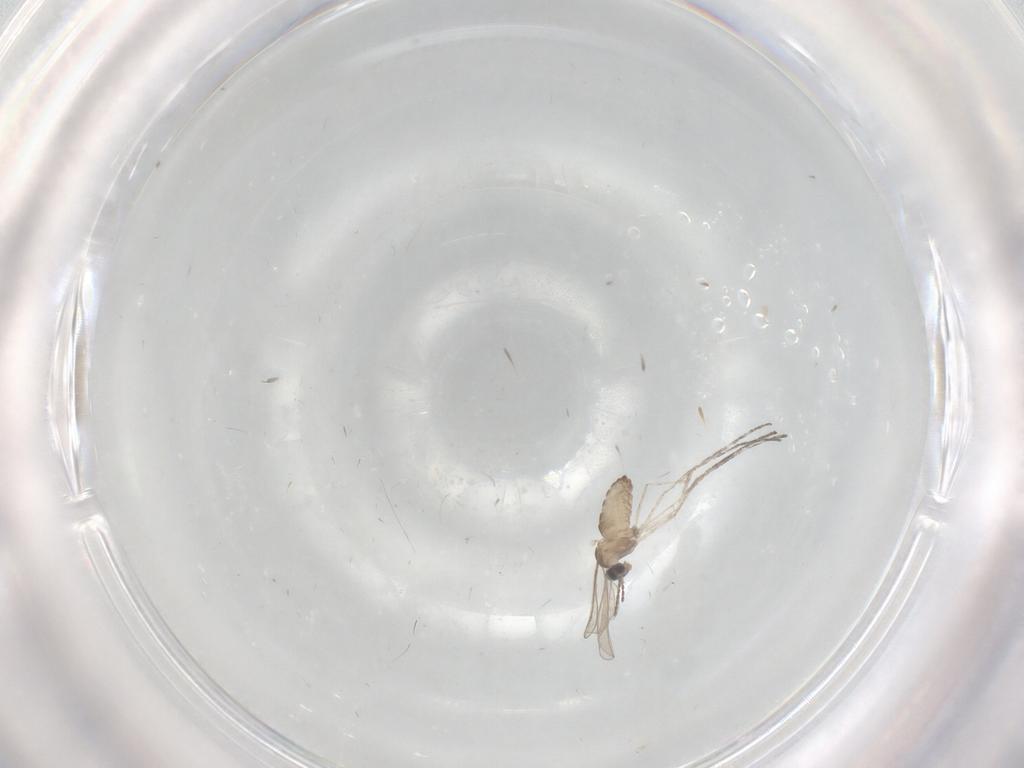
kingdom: Animalia
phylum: Arthropoda
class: Insecta
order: Diptera
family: Cecidomyiidae
